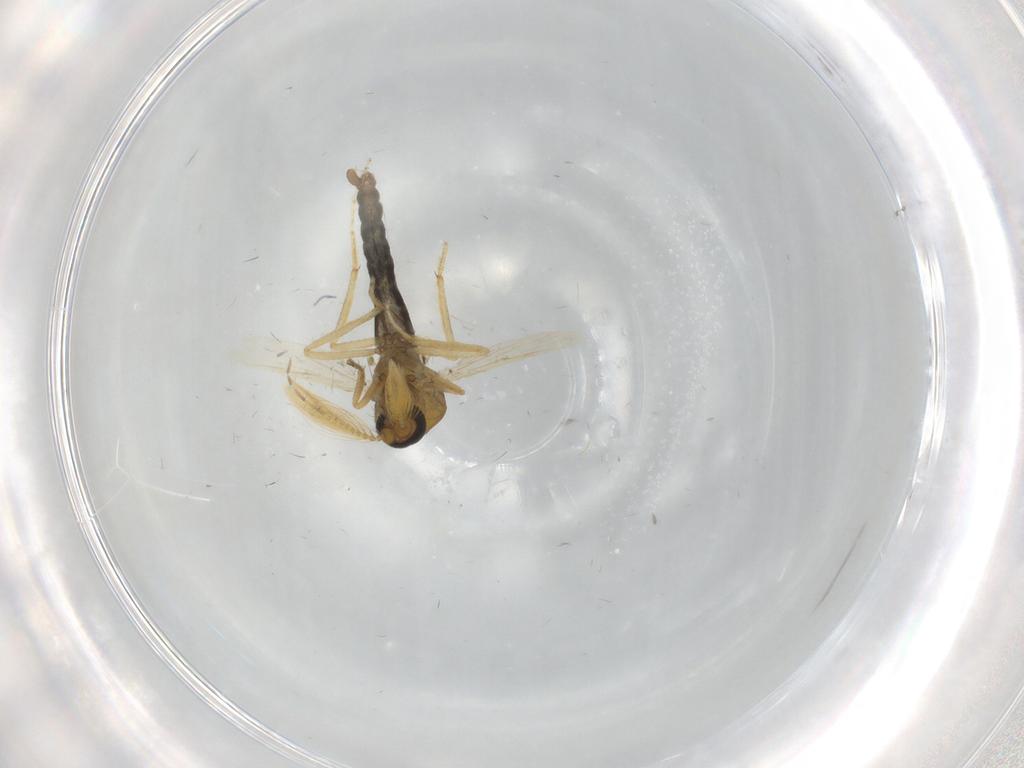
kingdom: Animalia
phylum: Arthropoda
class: Insecta
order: Diptera
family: Ceratopogonidae
